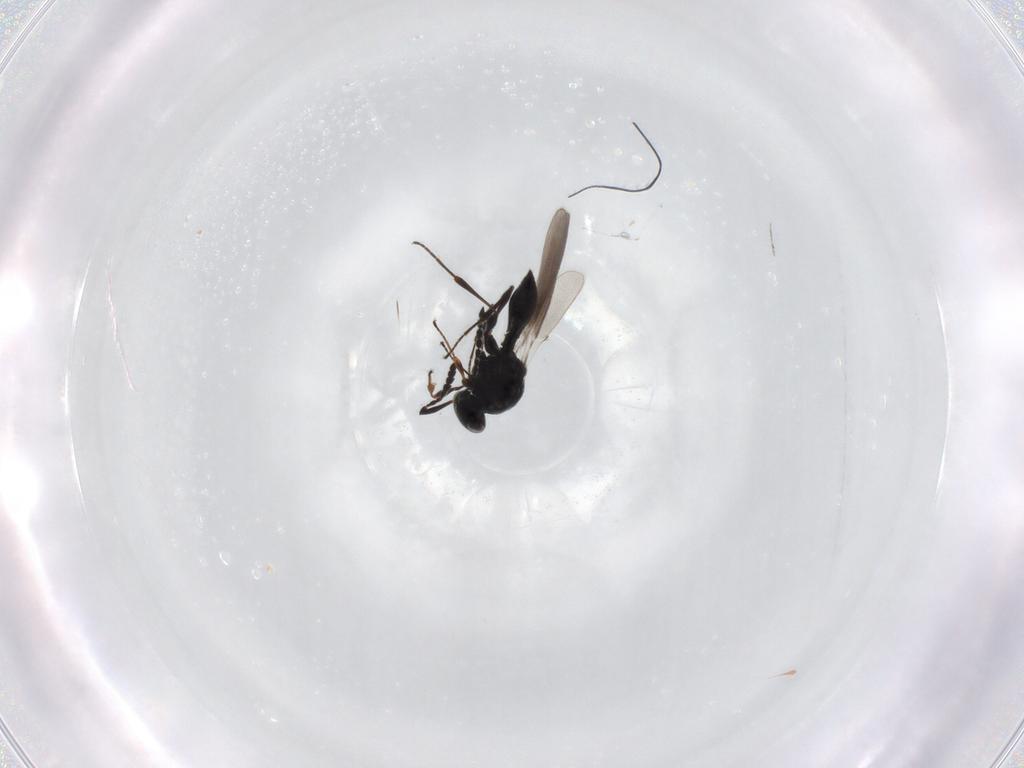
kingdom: Animalia
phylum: Arthropoda
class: Insecta
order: Hymenoptera
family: Platygastridae
